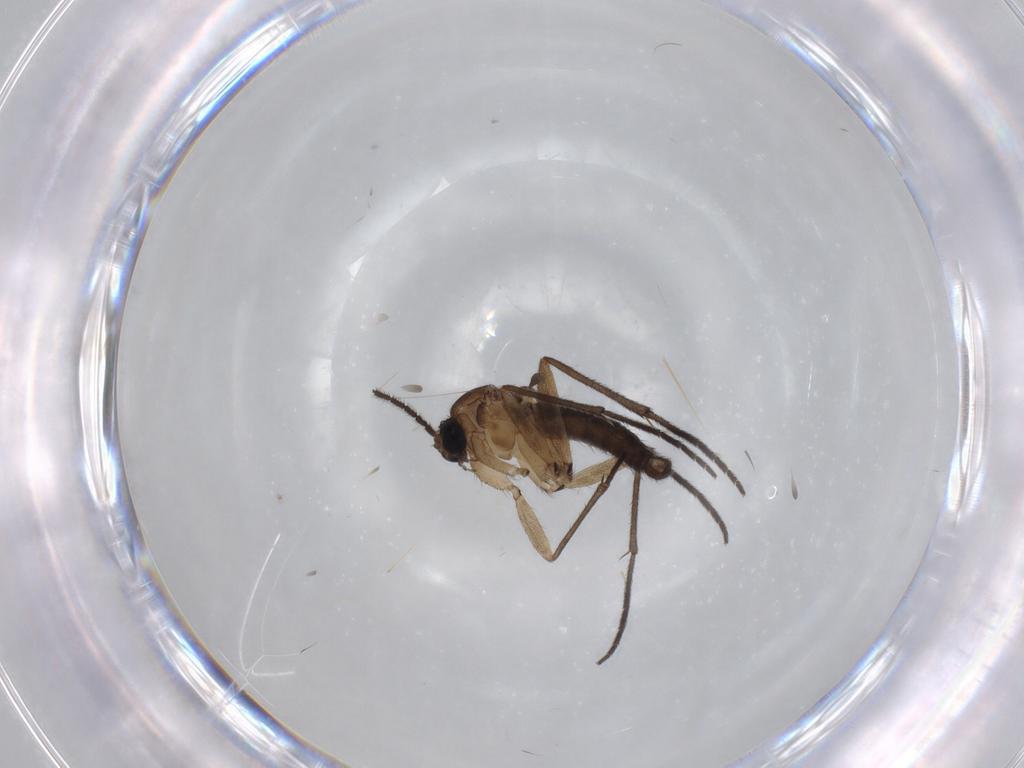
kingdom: Animalia
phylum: Arthropoda
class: Insecta
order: Diptera
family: Sciaridae
